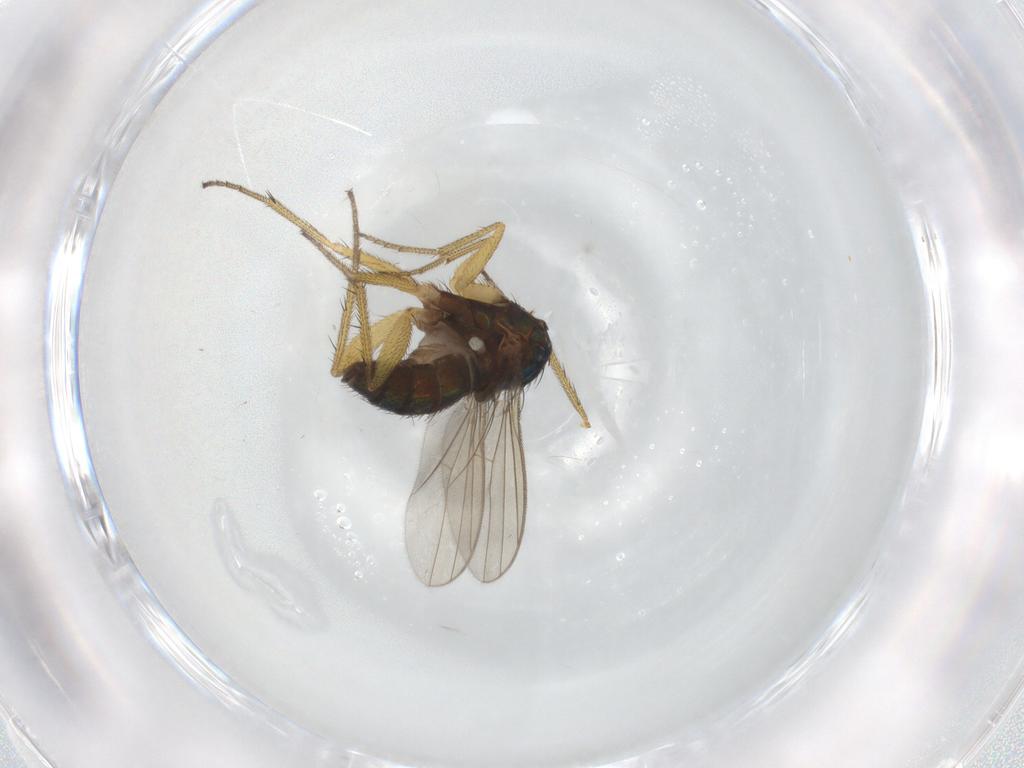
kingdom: Animalia
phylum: Arthropoda
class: Insecta
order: Diptera
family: Dolichopodidae
